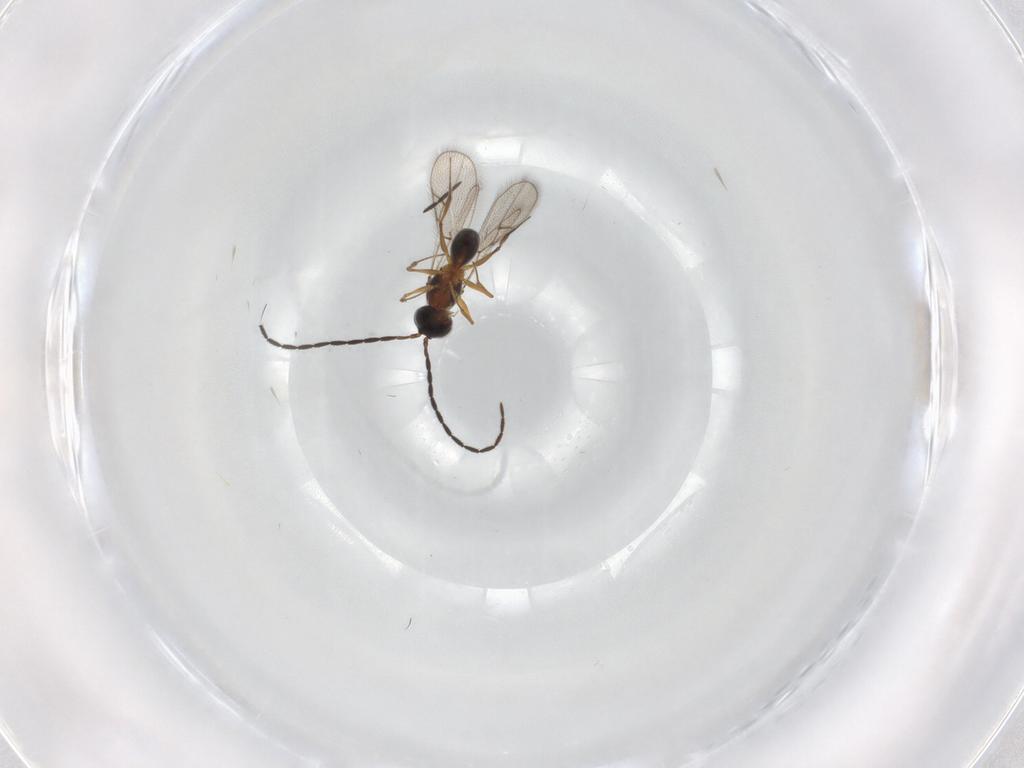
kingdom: Animalia
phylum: Arthropoda
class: Insecta
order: Hymenoptera
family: Figitidae
